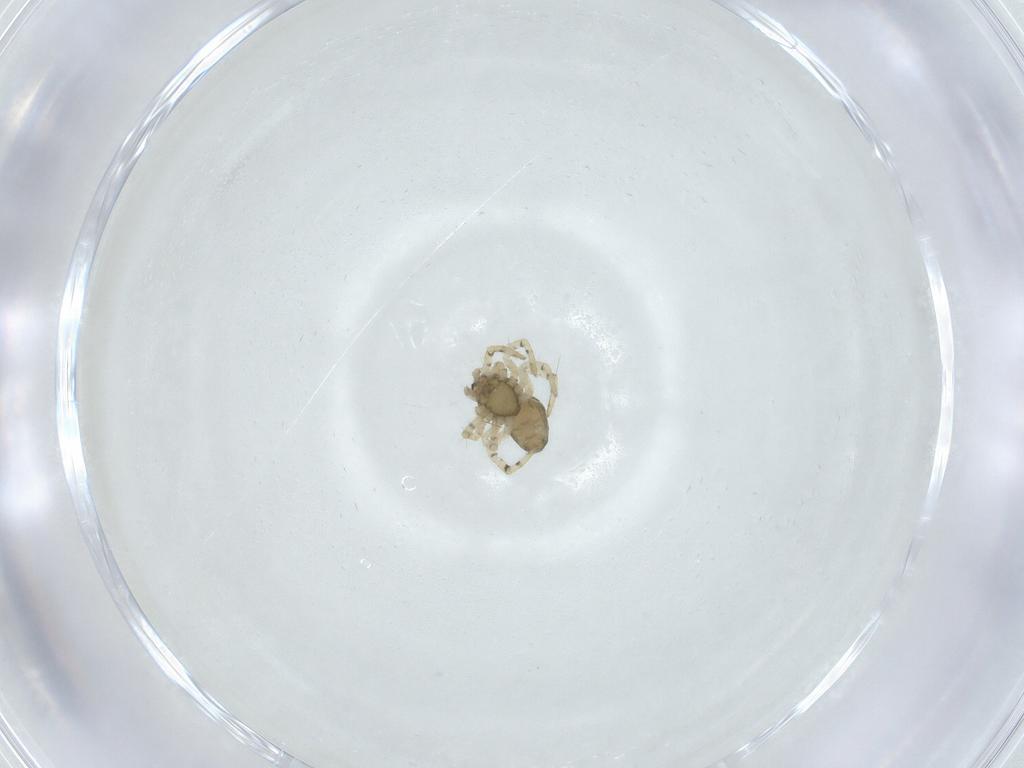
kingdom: Animalia
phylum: Arthropoda
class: Arachnida
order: Araneae
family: Theridiidae
